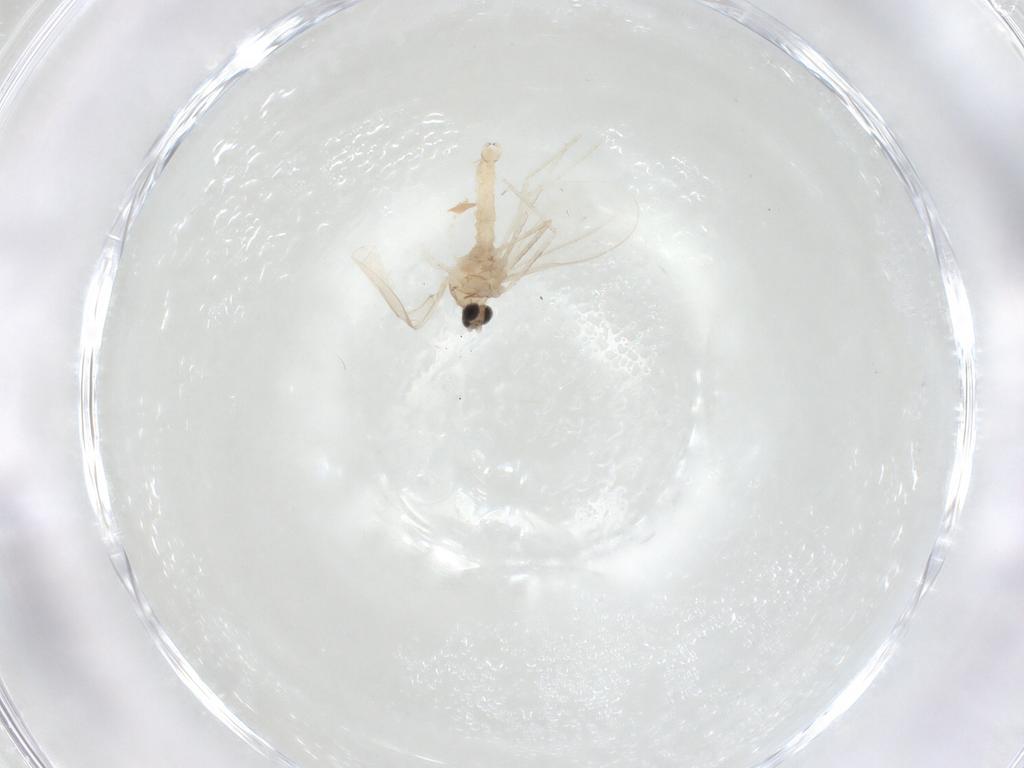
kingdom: Animalia
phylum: Arthropoda
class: Insecta
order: Diptera
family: Cecidomyiidae
